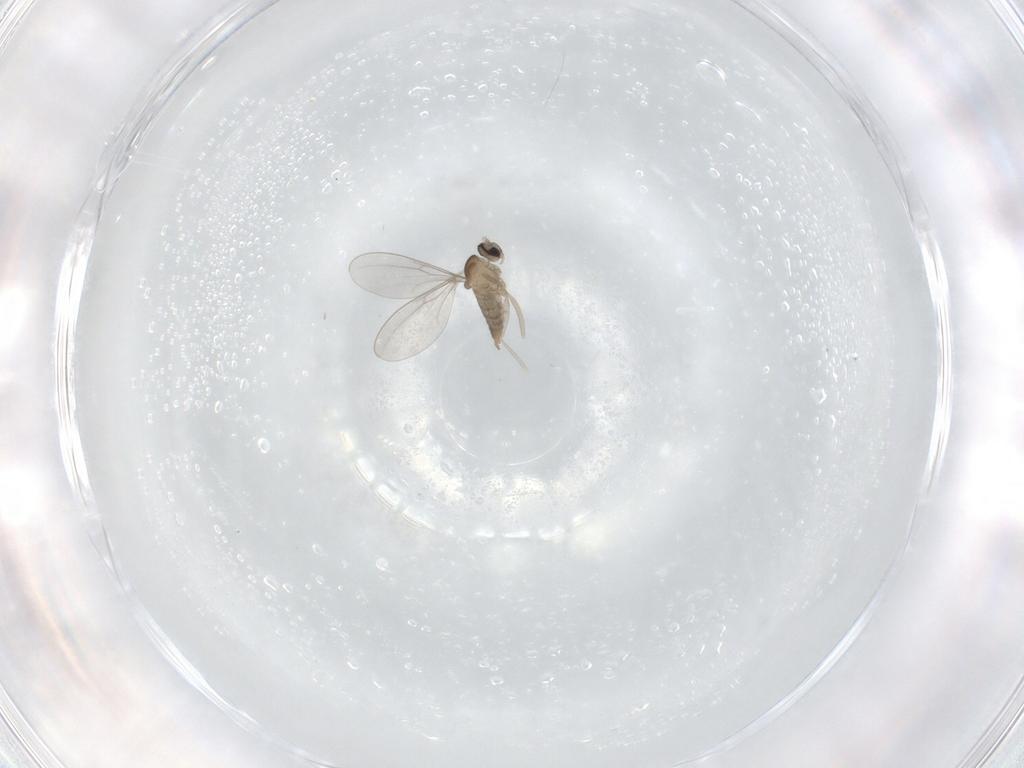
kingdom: Animalia
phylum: Arthropoda
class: Insecta
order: Diptera
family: Cecidomyiidae
